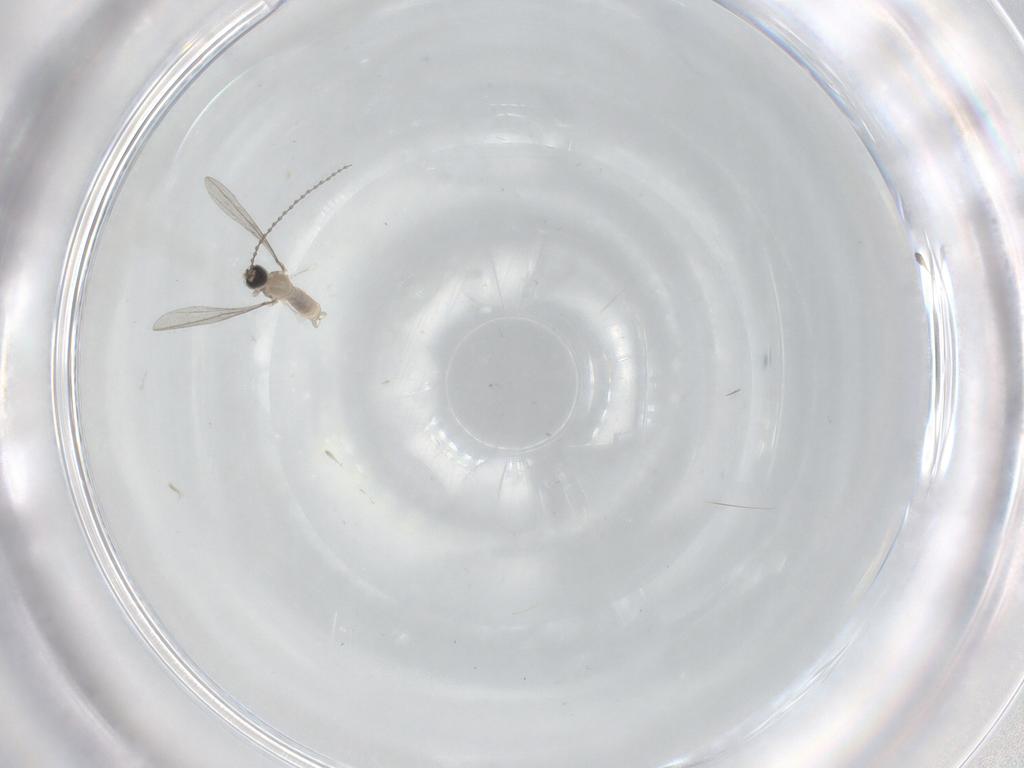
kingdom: Animalia
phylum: Arthropoda
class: Insecta
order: Diptera
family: Cecidomyiidae
